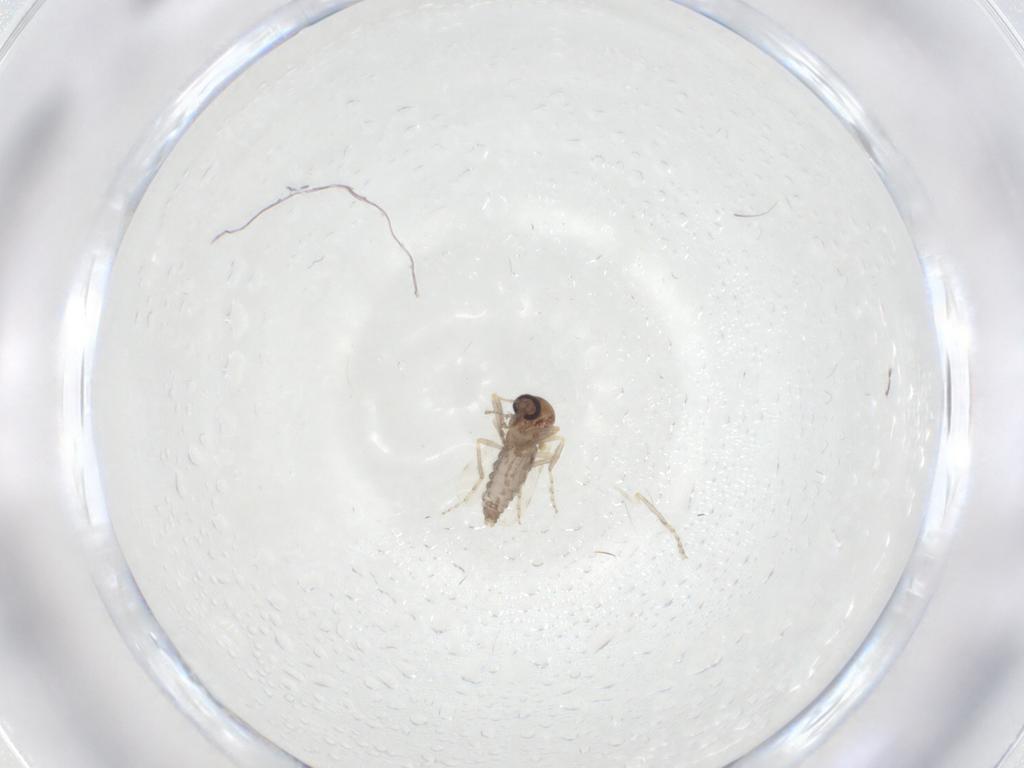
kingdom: Animalia
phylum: Arthropoda
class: Insecta
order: Diptera
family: Ceratopogonidae
